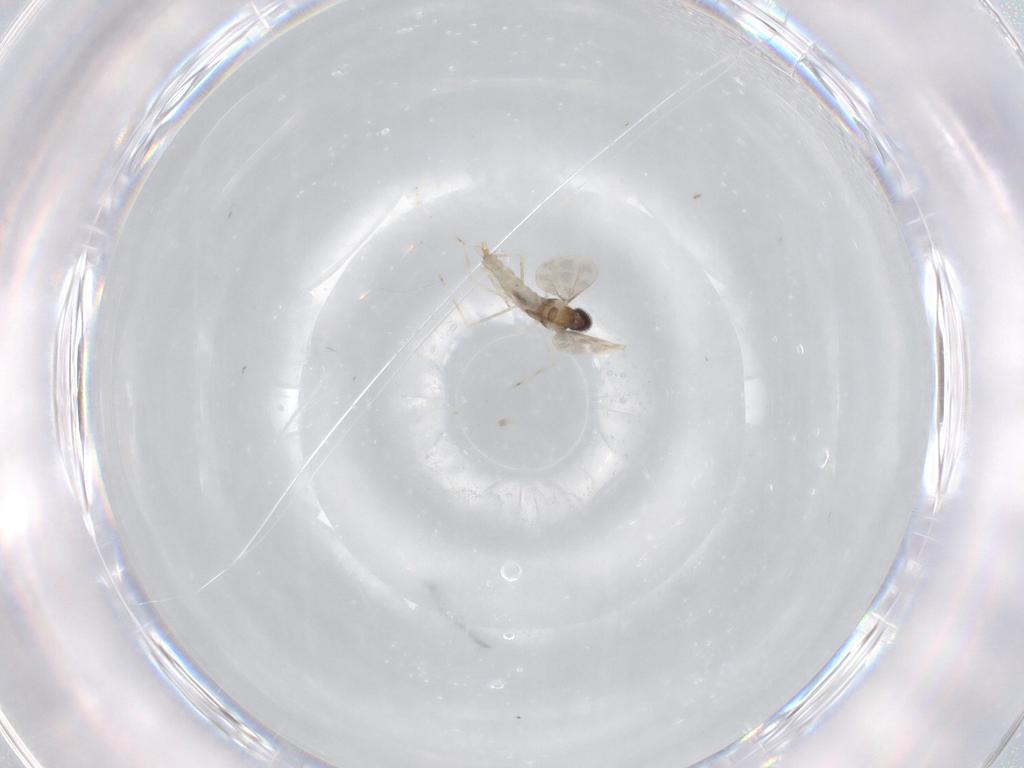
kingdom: Animalia
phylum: Arthropoda
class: Insecta
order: Diptera
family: Cecidomyiidae
